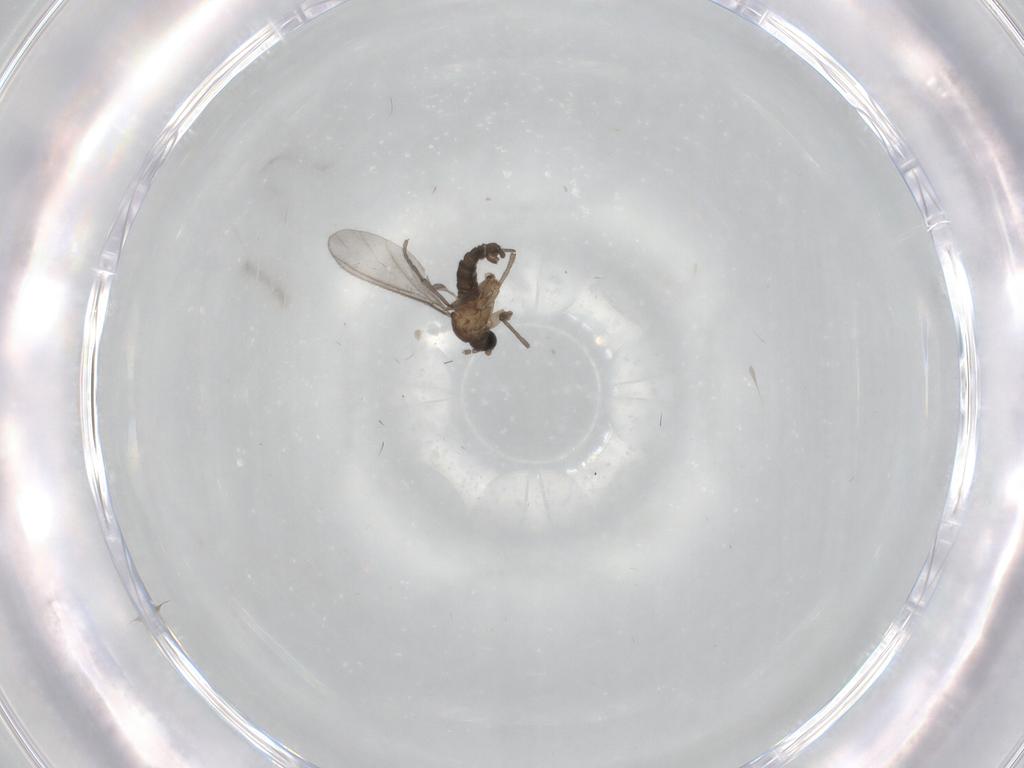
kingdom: Animalia
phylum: Arthropoda
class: Insecta
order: Diptera
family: Sciaridae
